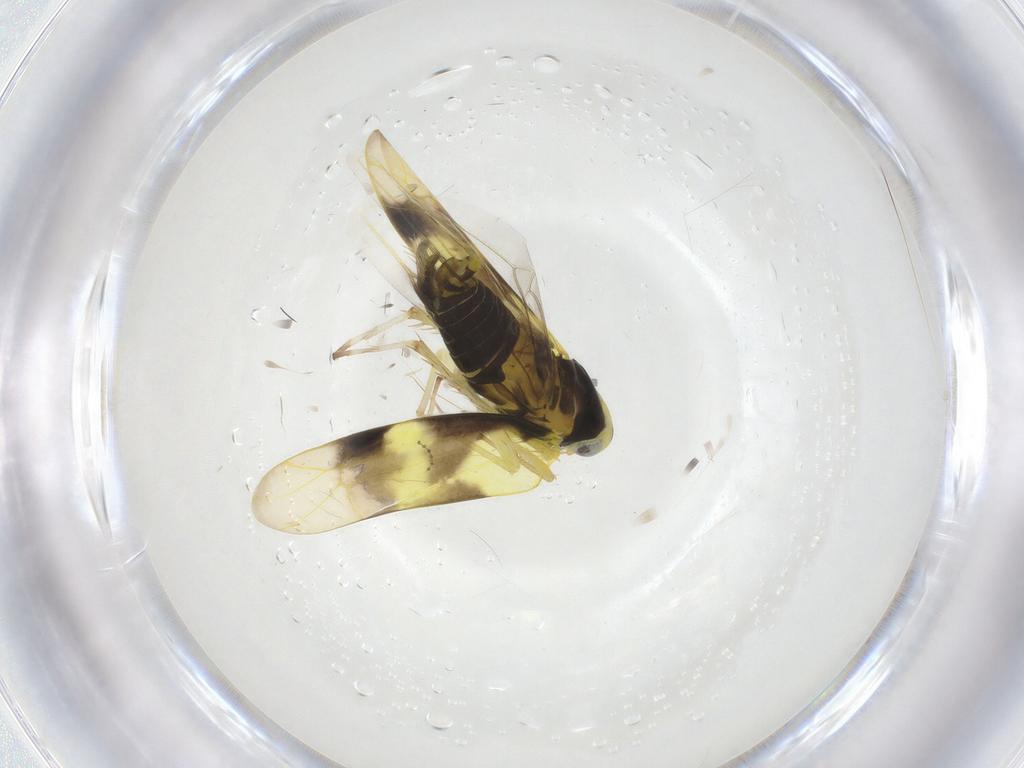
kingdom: Animalia
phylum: Arthropoda
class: Insecta
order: Hemiptera
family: Cicadellidae
